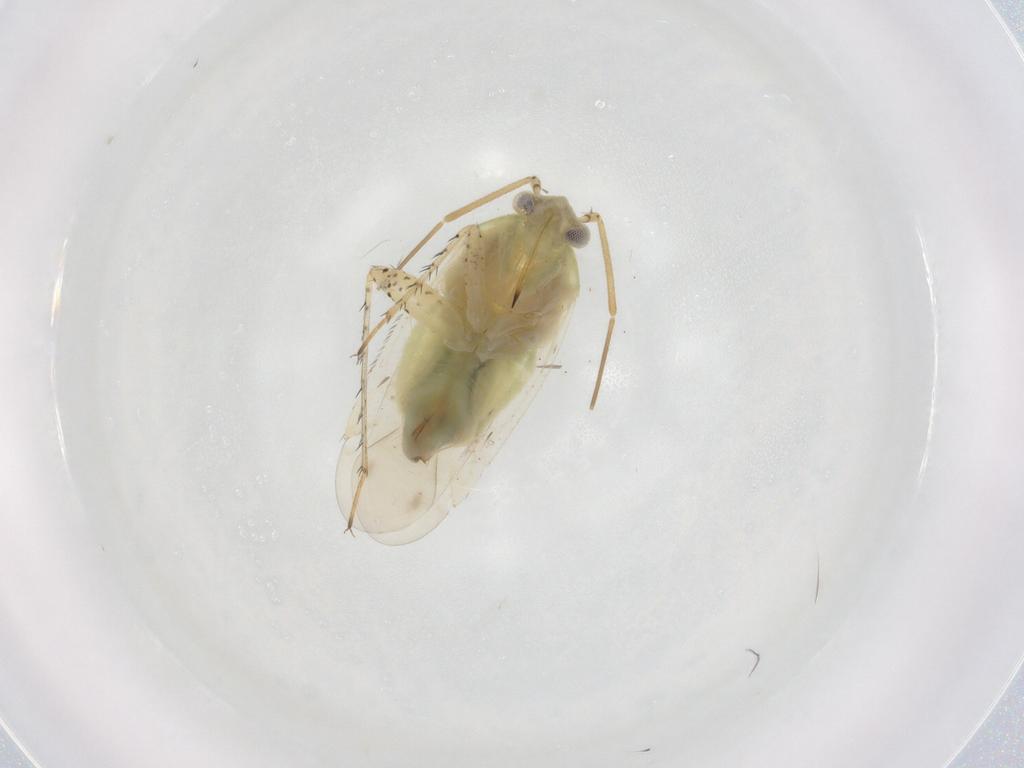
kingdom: Animalia
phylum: Arthropoda
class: Insecta
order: Hemiptera
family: Miridae
